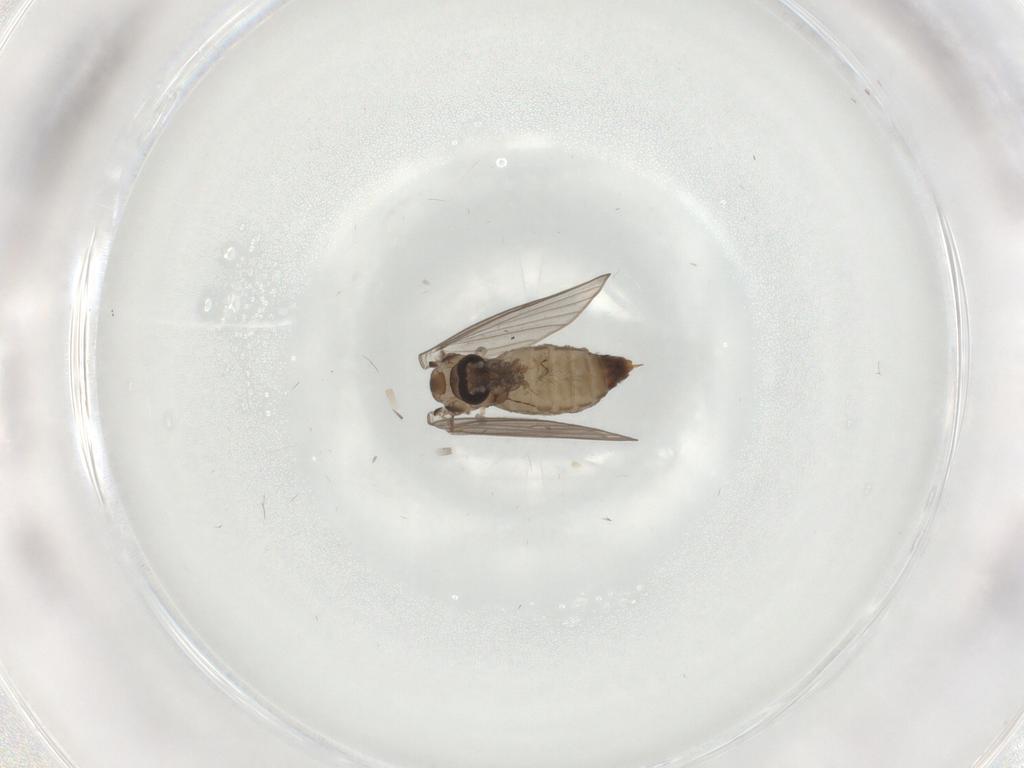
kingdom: Animalia
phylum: Arthropoda
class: Insecta
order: Diptera
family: Psychodidae
